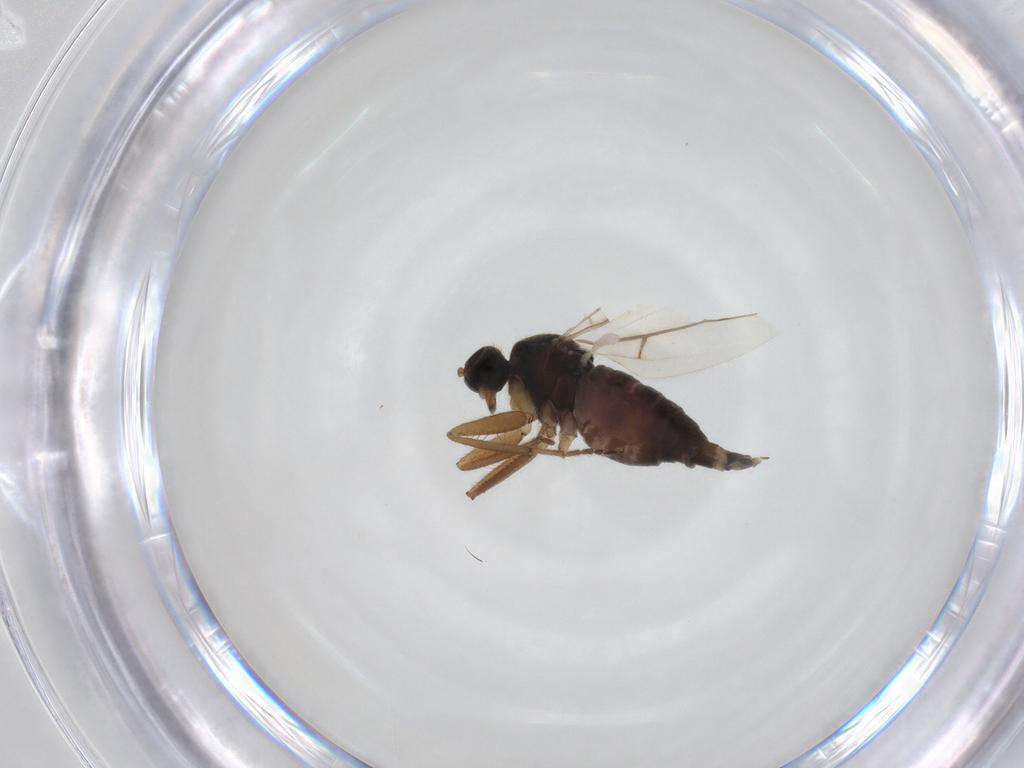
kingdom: Animalia
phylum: Arthropoda
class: Insecta
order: Diptera
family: Hybotidae
